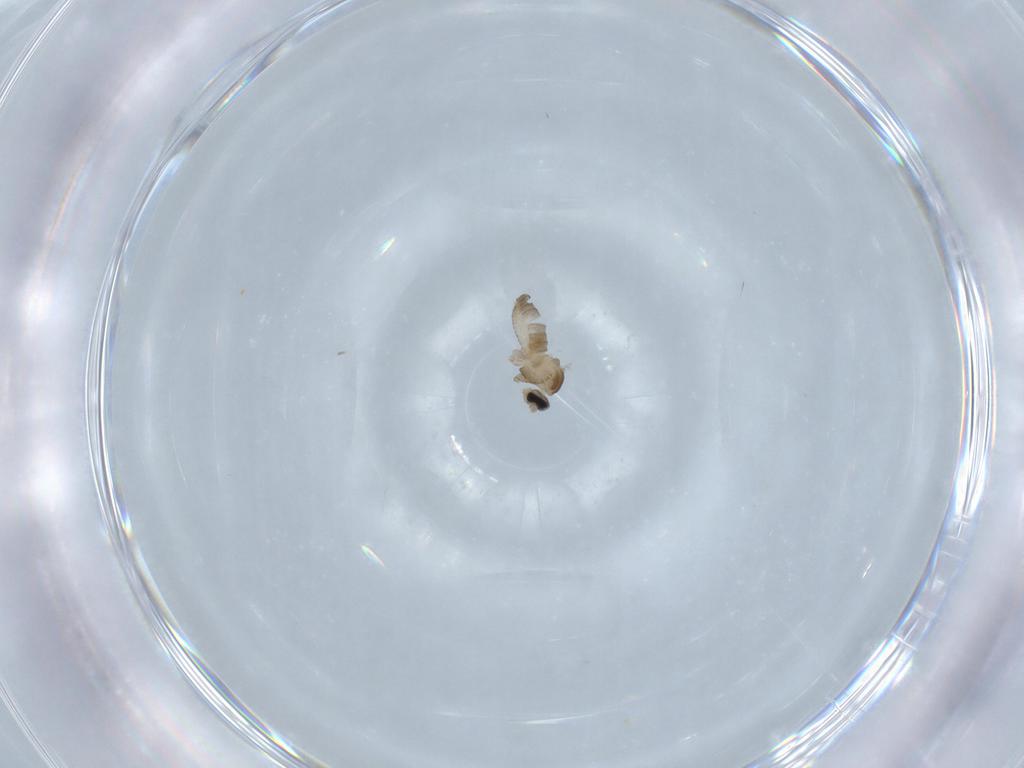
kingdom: Animalia
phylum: Arthropoda
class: Insecta
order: Diptera
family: Cecidomyiidae
